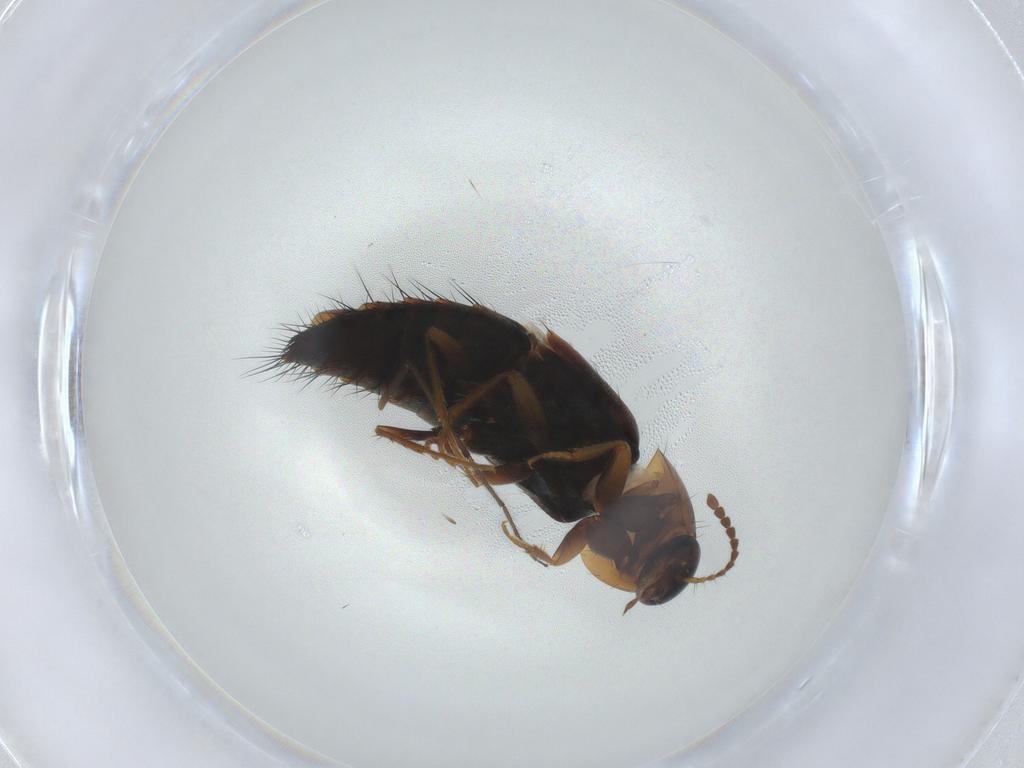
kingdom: Animalia
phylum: Arthropoda
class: Insecta
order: Coleoptera
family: Staphylinidae
